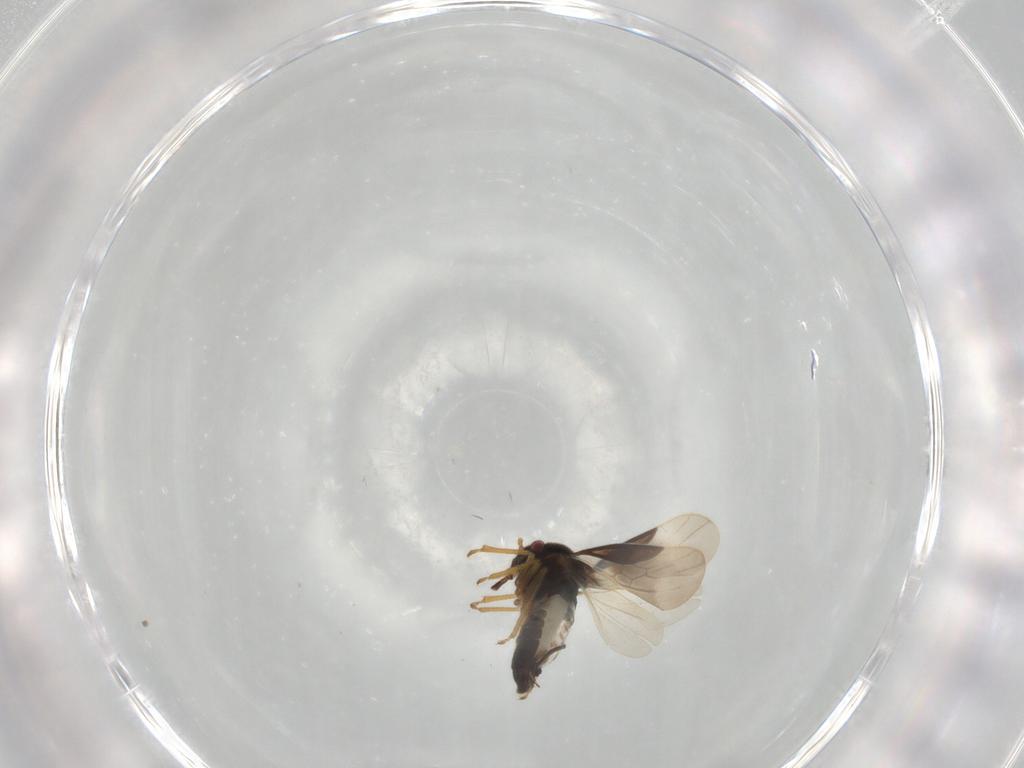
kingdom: Animalia
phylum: Arthropoda
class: Insecta
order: Hemiptera
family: Schizopteridae
